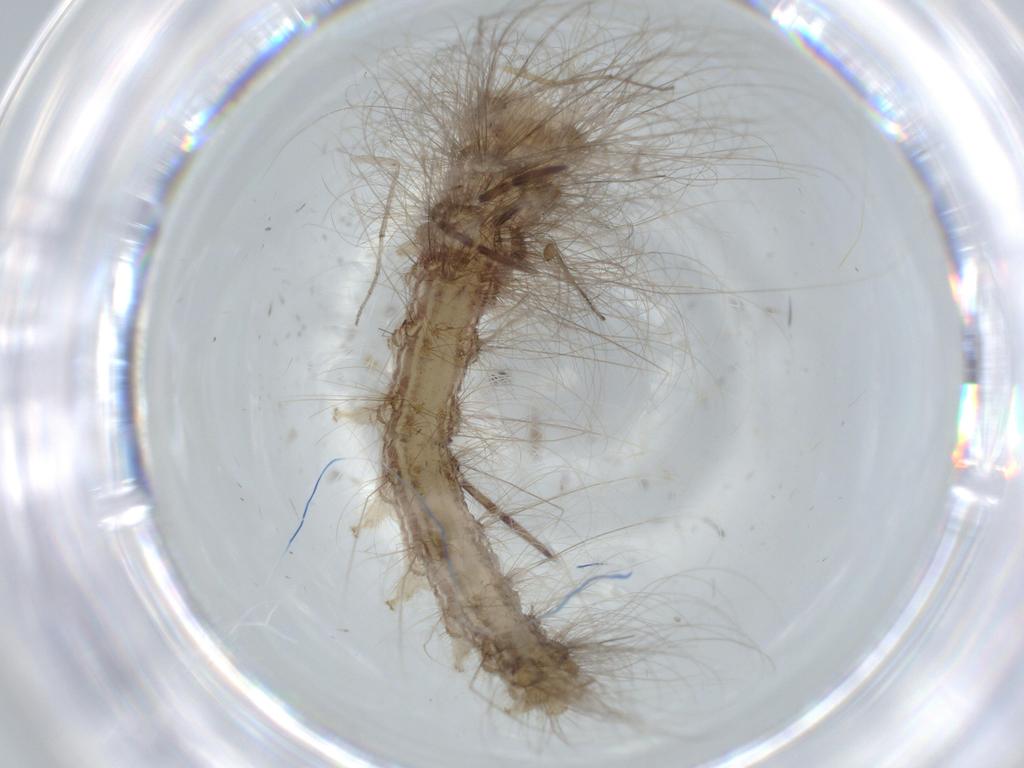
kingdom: Animalia
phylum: Arthropoda
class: Insecta
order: Lepidoptera
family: Apatelodidae
